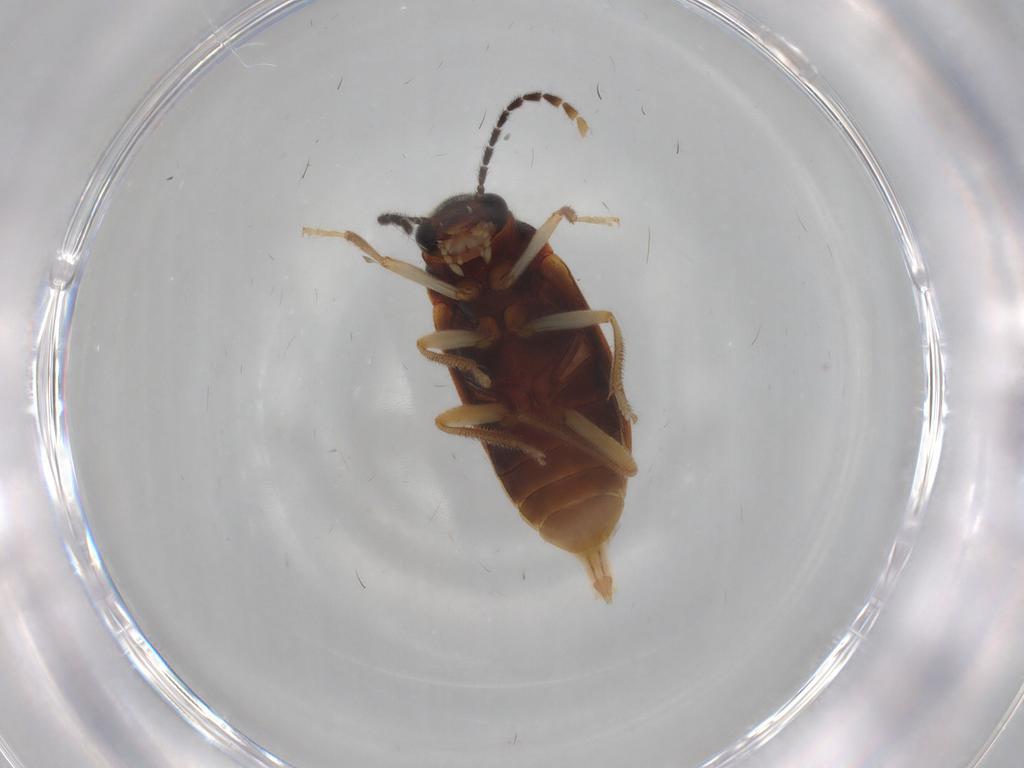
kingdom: Animalia
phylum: Arthropoda
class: Insecta
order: Coleoptera
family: Ptilodactylidae
